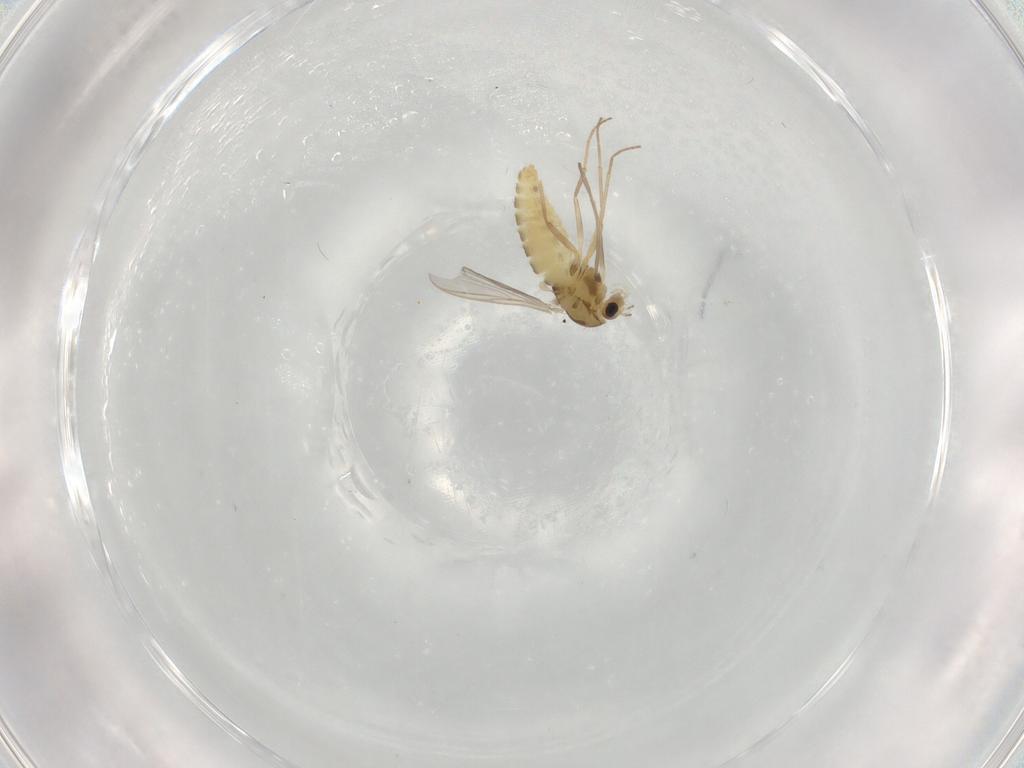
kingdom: Animalia
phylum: Arthropoda
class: Insecta
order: Diptera
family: Chironomidae
